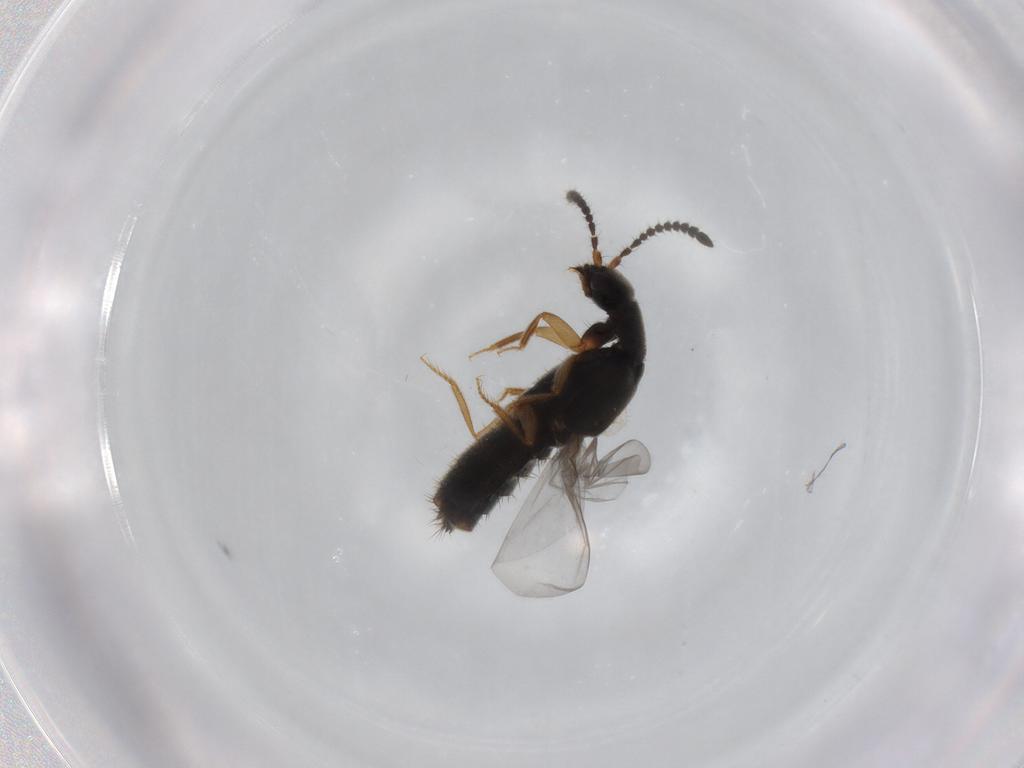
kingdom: Animalia
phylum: Arthropoda
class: Insecta
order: Coleoptera
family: Staphylinidae
